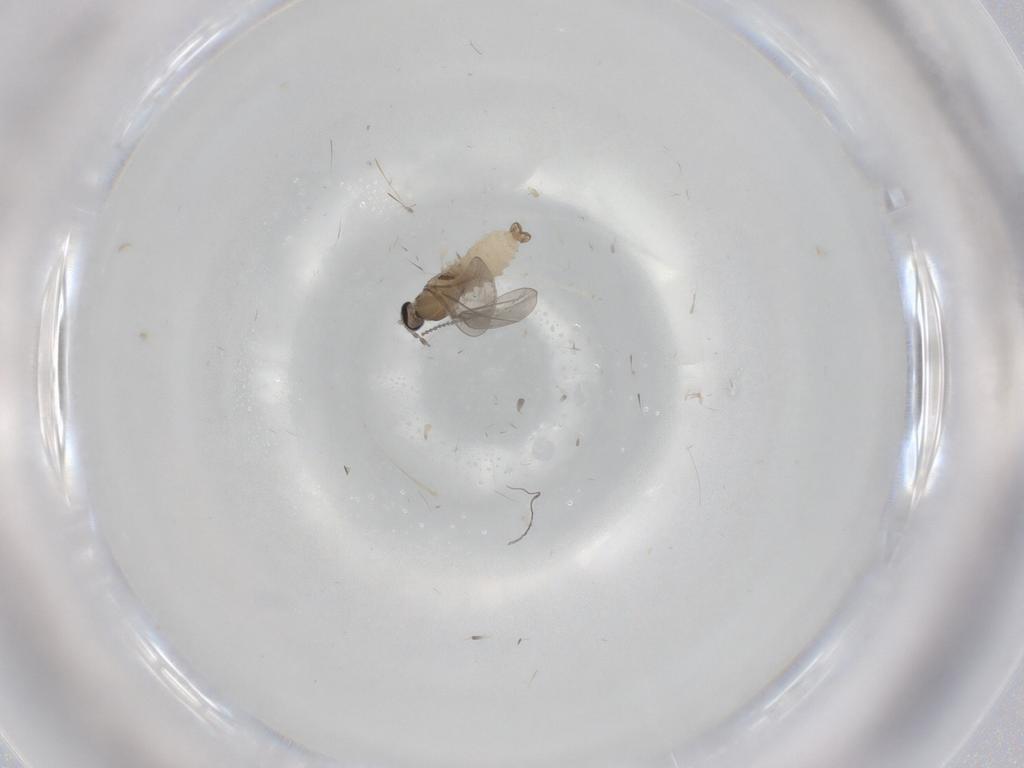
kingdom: Animalia
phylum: Arthropoda
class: Insecta
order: Diptera
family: Cecidomyiidae
